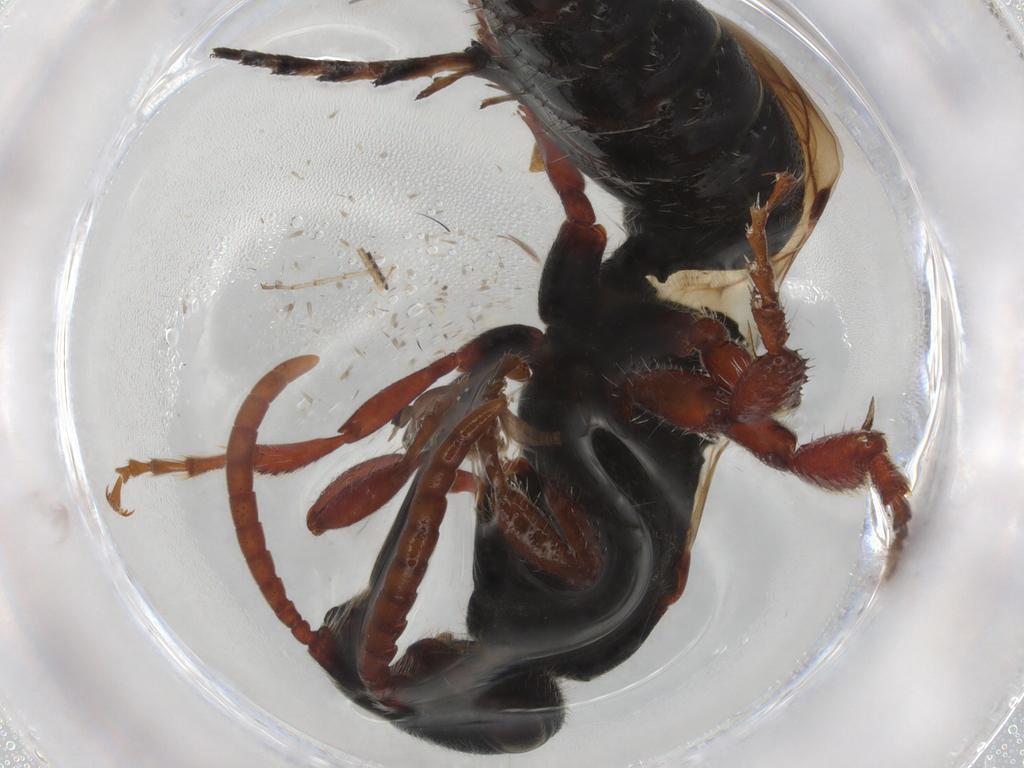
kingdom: Animalia
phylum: Arthropoda
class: Insecta
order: Hymenoptera
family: Tiphiidae
